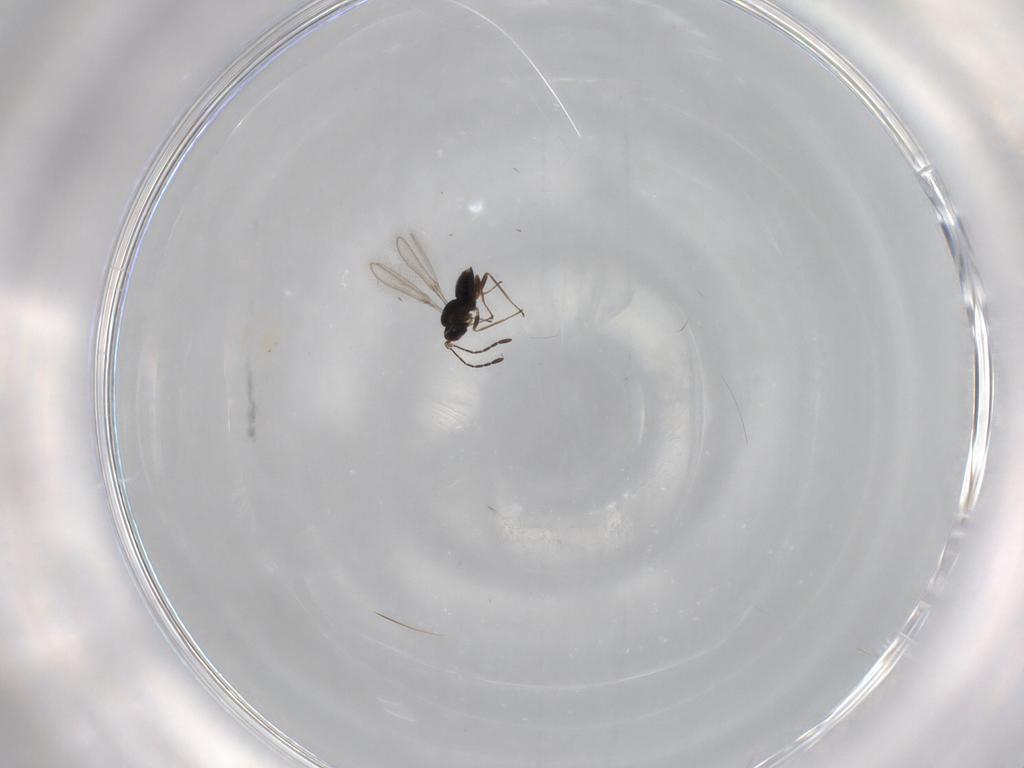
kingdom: Animalia
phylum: Arthropoda
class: Insecta
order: Hymenoptera
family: Mymaridae
